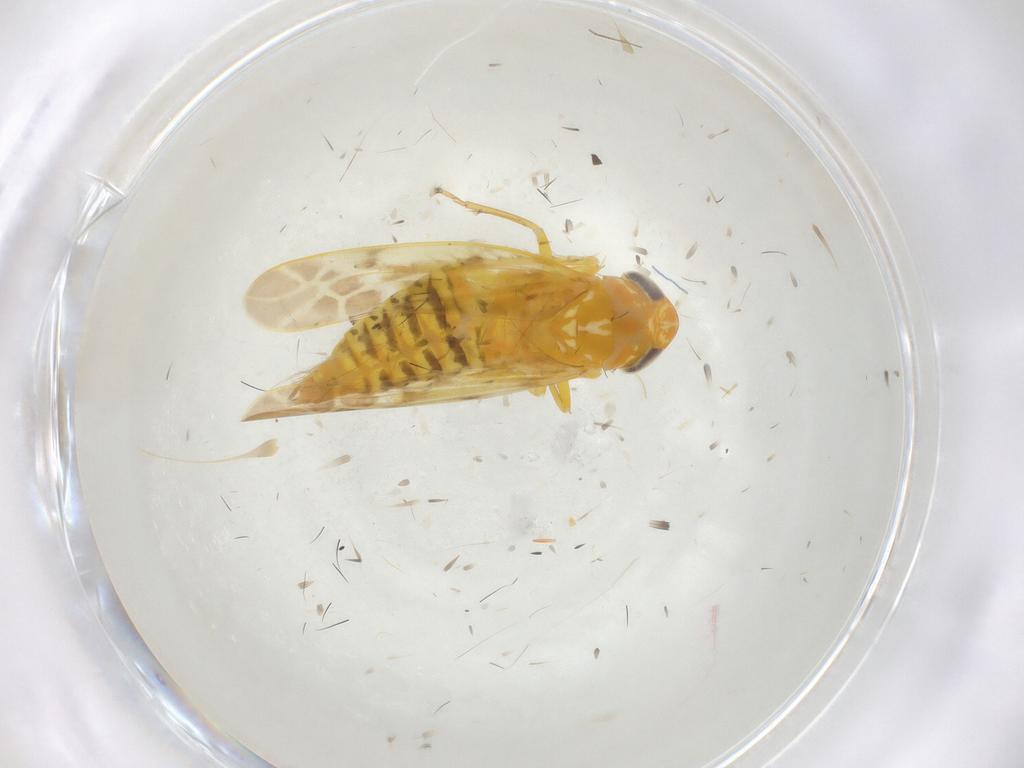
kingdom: Animalia
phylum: Arthropoda
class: Insecta
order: Hemiptera
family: Cicadellidae
